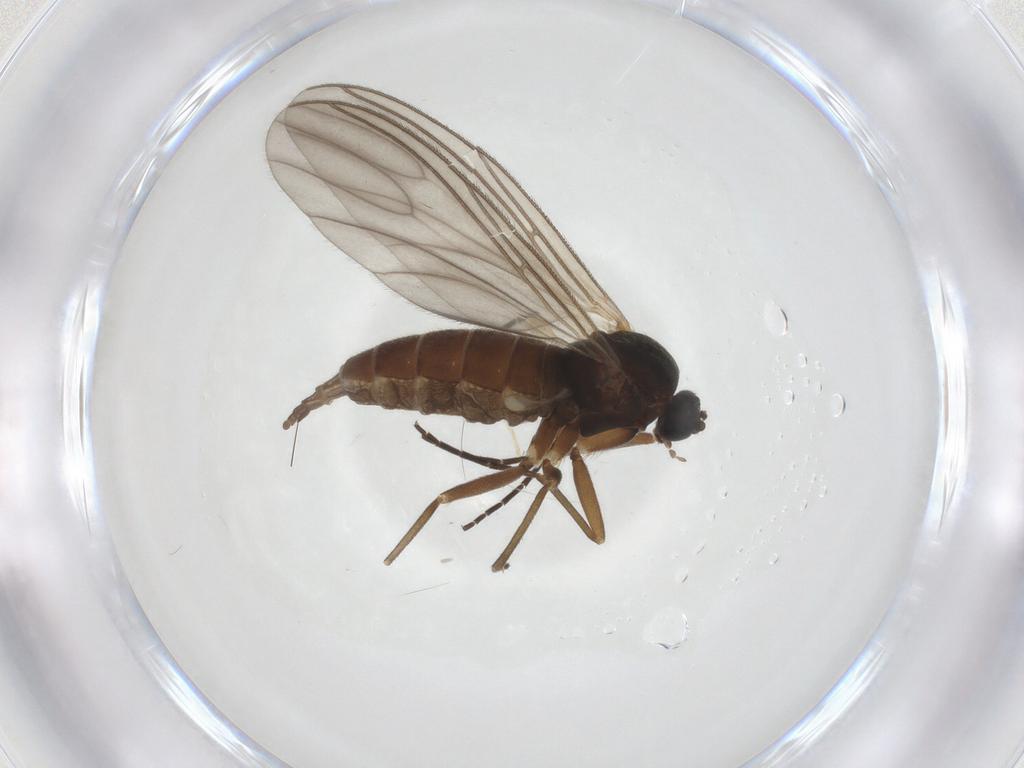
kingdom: Animalia
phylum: Arthropoda
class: Insecta
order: Diptera
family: Sciaridae
